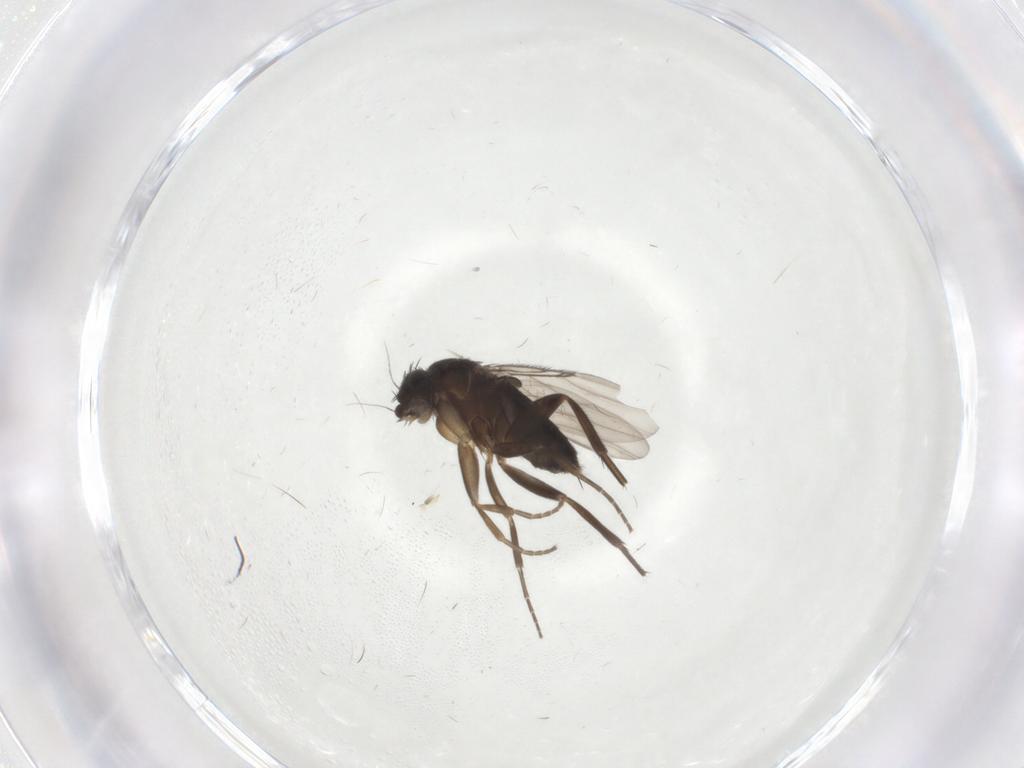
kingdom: Animalia
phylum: Arthropoda
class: Insecta
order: Diptera
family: Phoridae
